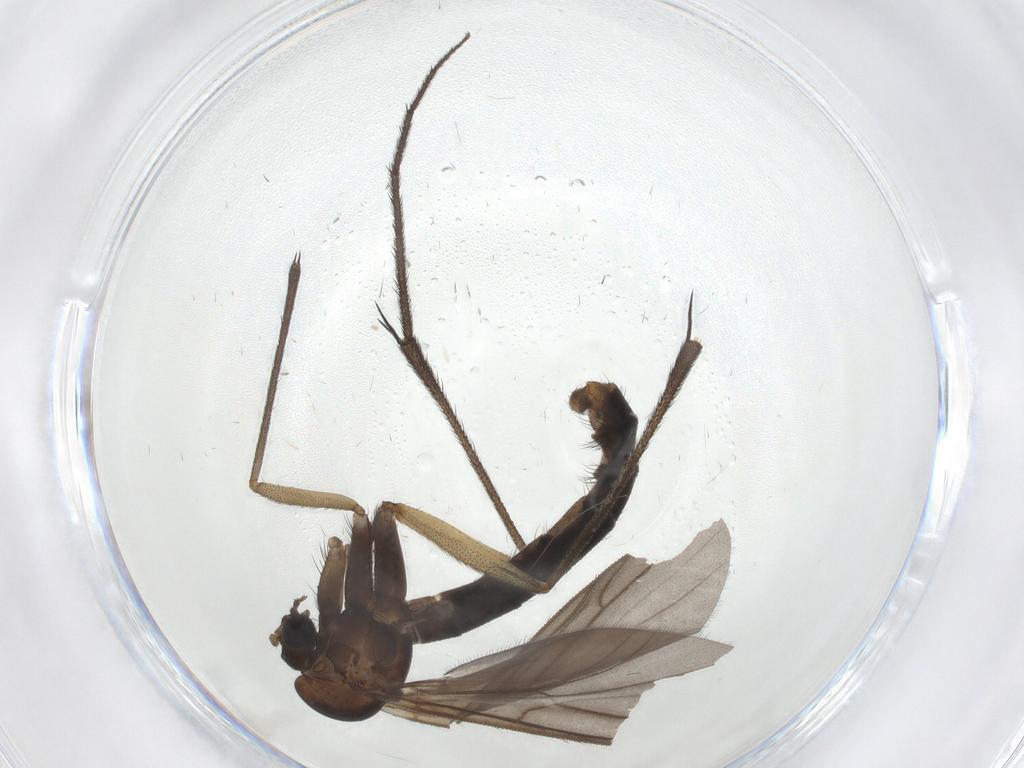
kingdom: Animalia
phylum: Arthropoda
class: Insecta
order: Diptera
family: Ditomyiidae
